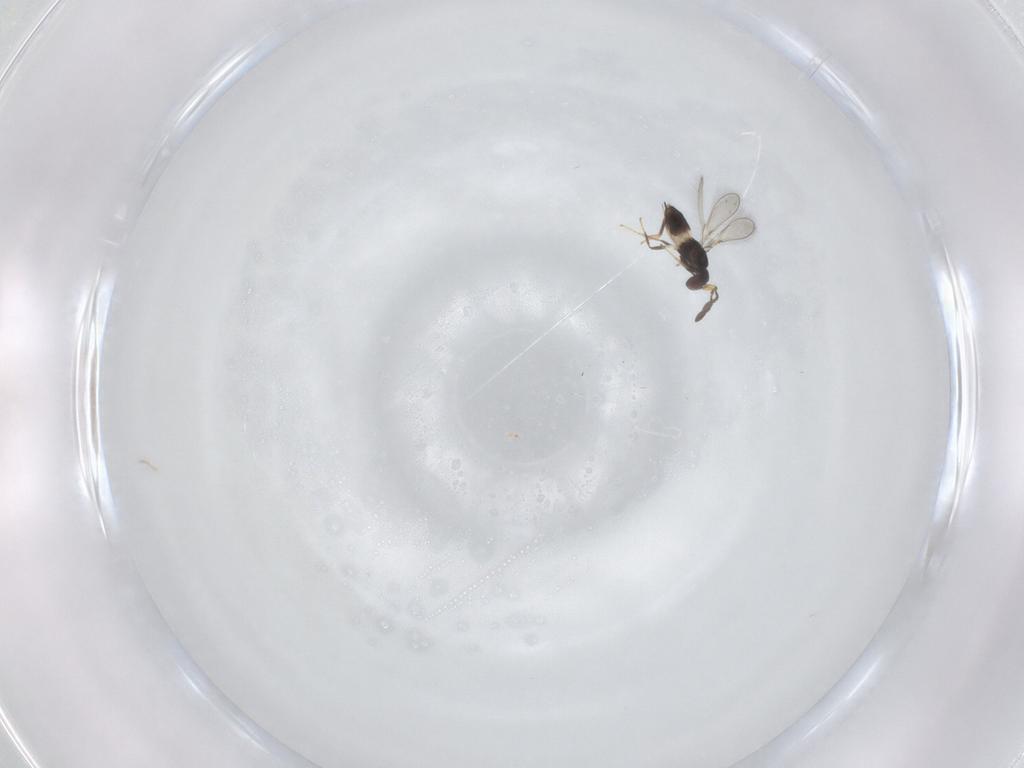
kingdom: Animalia
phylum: Arthropoda
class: Insecta
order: Hymenoptera
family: Mymaridae
